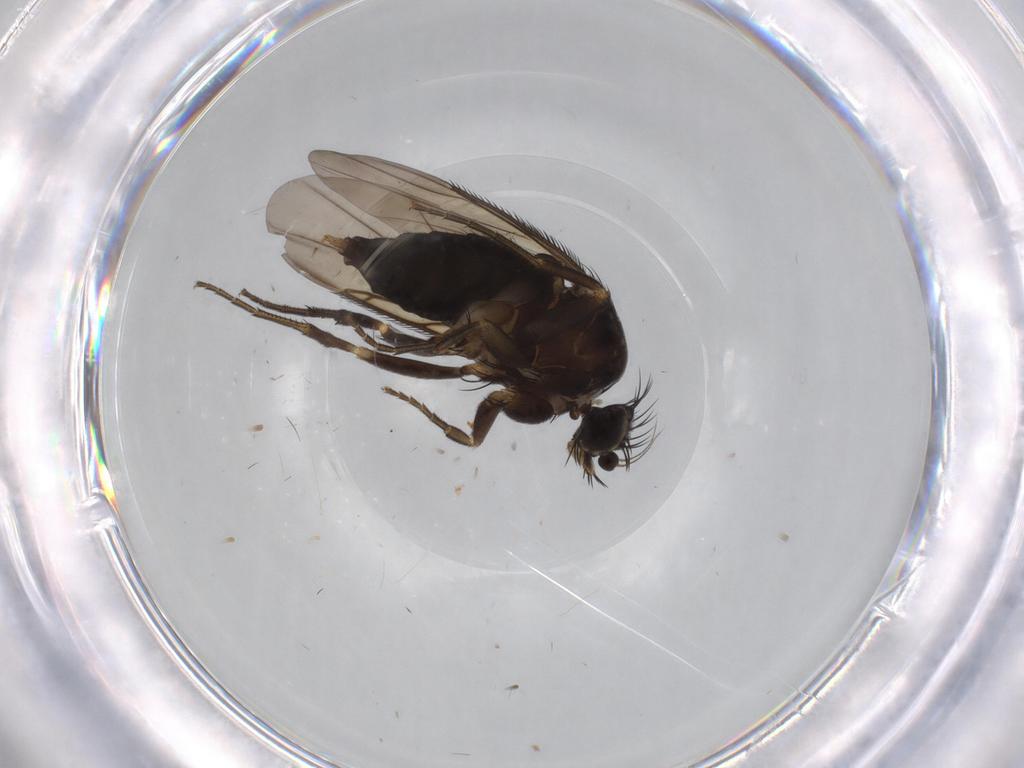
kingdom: Animalia
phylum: Arthropoda
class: Insecta
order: Diptera
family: Phoridae
